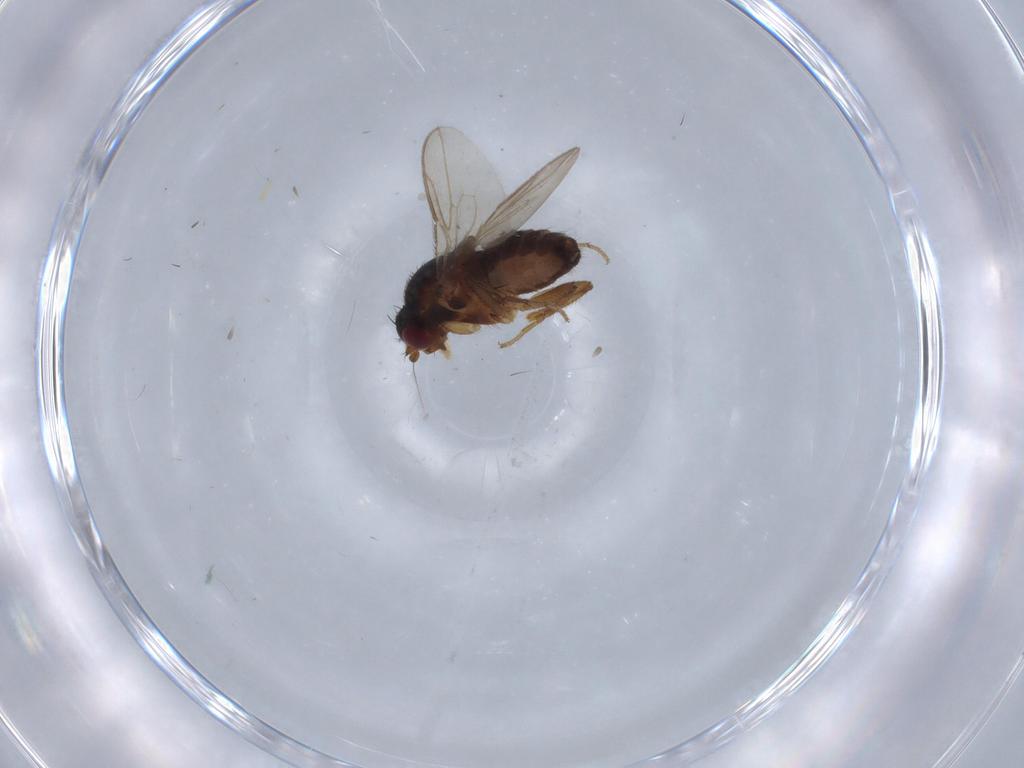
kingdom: Animalia
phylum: Arthropoda
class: Insecta
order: Diptera
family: Sphaeroceridae
